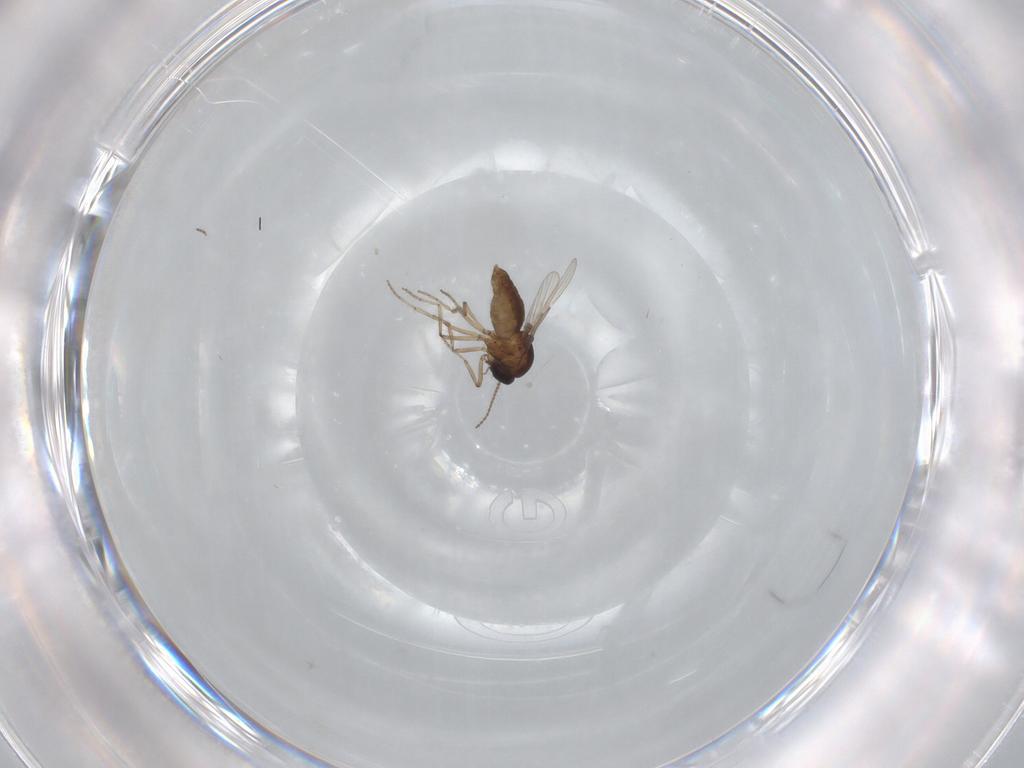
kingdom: Animalia
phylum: Arthropoda
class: Insecta
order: Diptera
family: Ceratopogonidae
